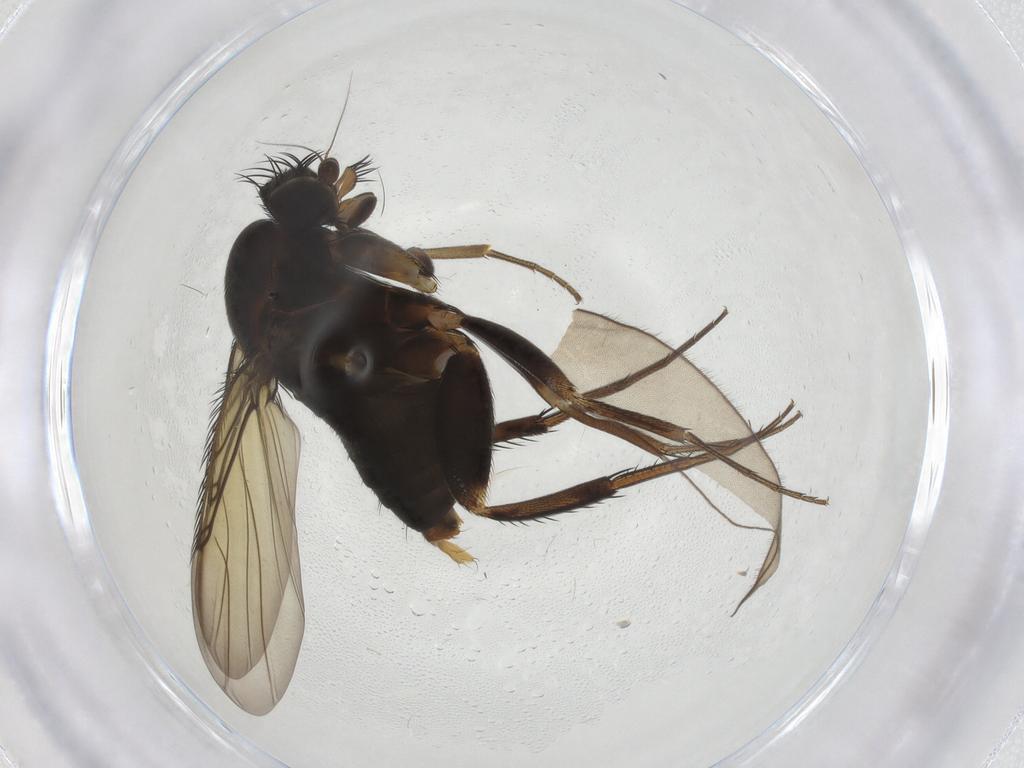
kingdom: Animalia
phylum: Arthropoda
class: Insecta
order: Diptera
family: Phoridae
